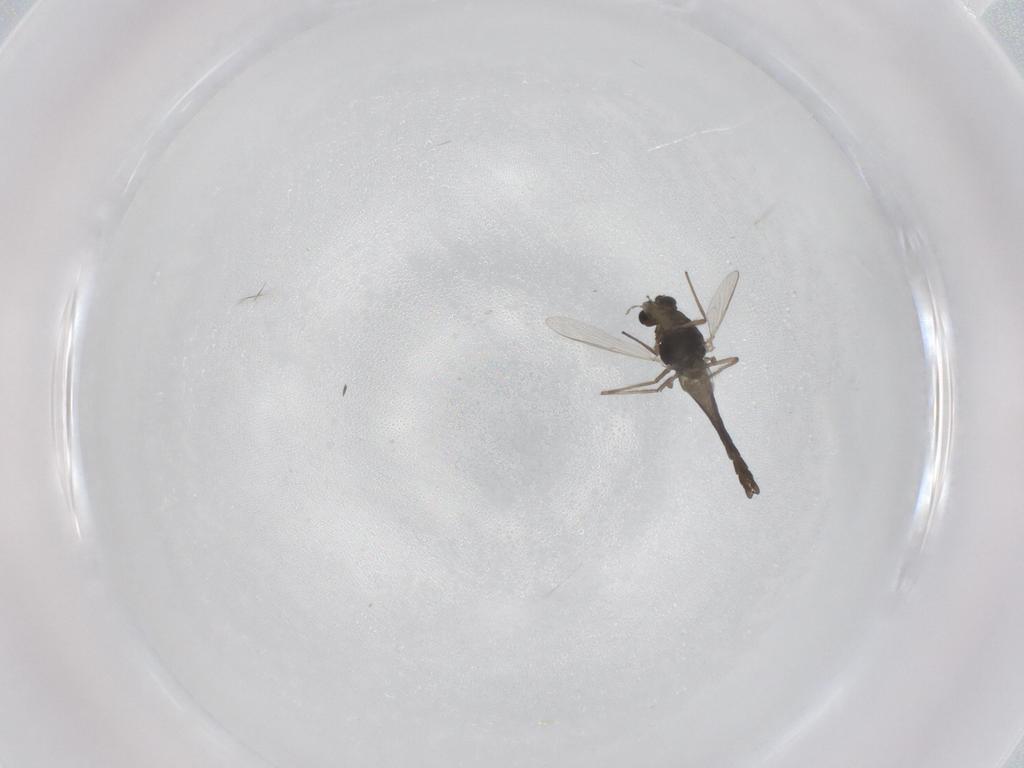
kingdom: Animalia
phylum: Arthropoda
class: Insecta
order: Diptera
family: Chironomidae
